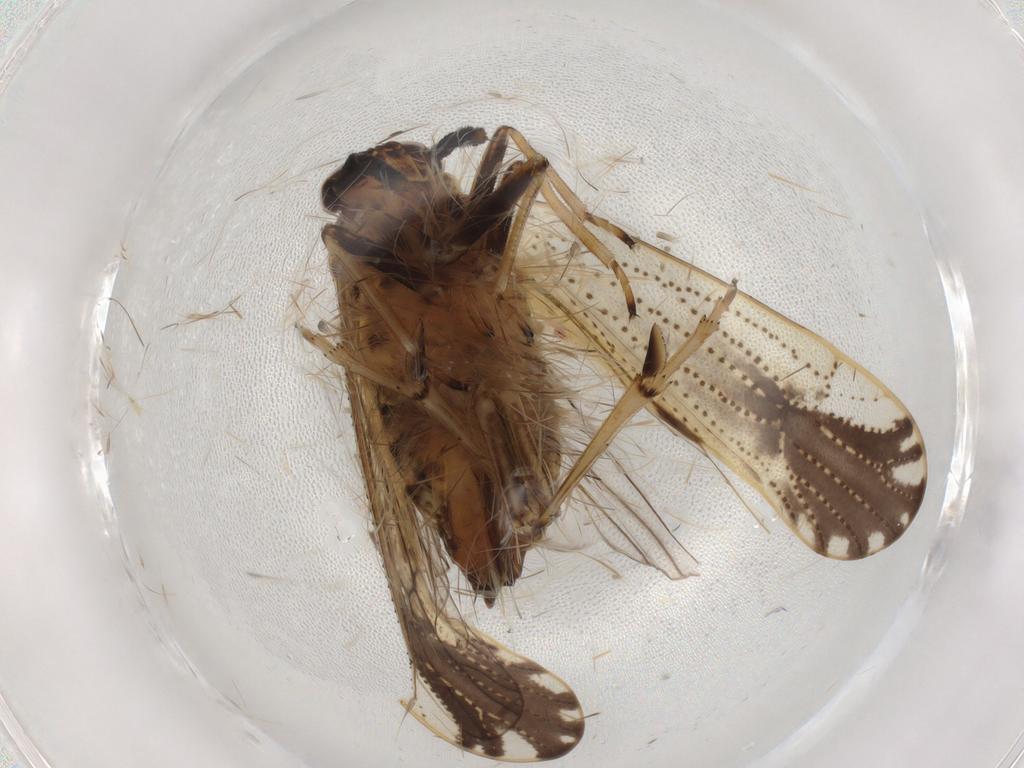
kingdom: Animalia
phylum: Arthropoda
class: Insecta
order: Hemiptera
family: Delphacidae
